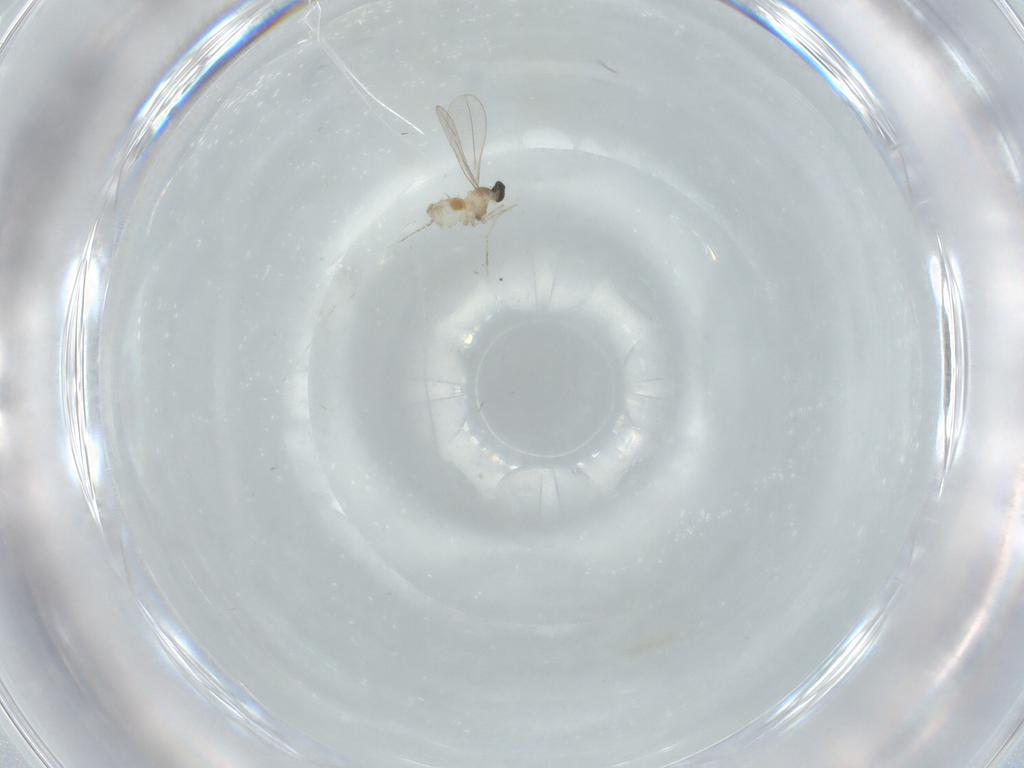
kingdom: Animalia
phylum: Arthropoda
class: Insecta
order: Diptera
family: Cecidomyiidae
